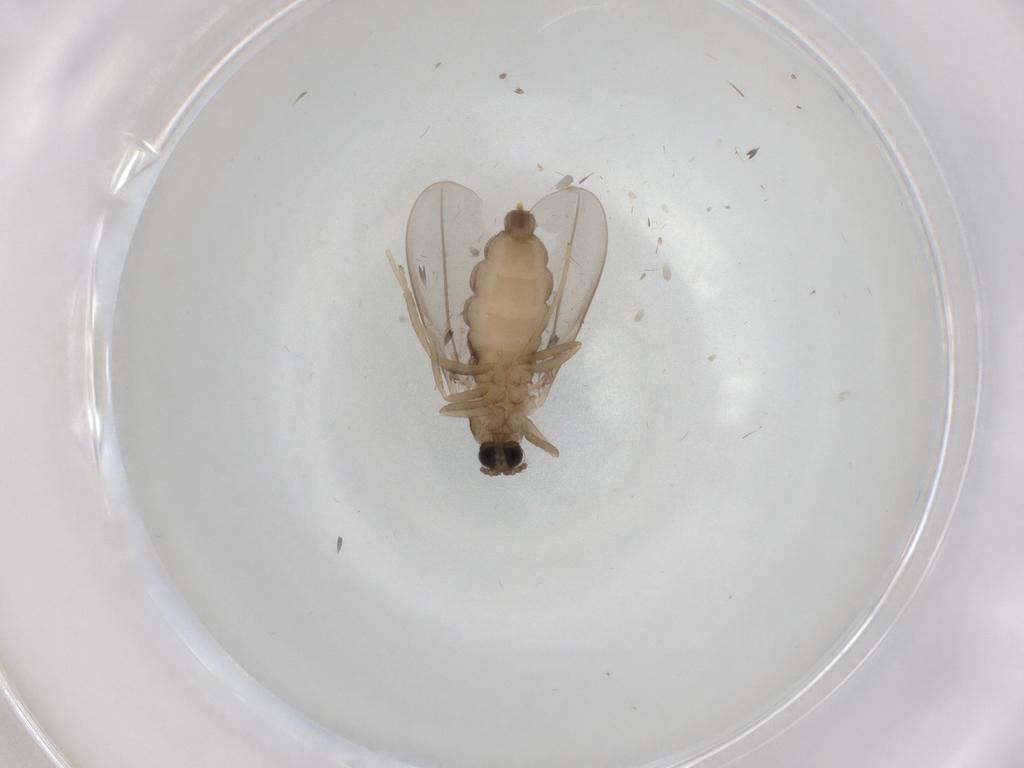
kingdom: Animalia
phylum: Arthropoda
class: Insecta
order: Diptera
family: Cecidomyiidae
